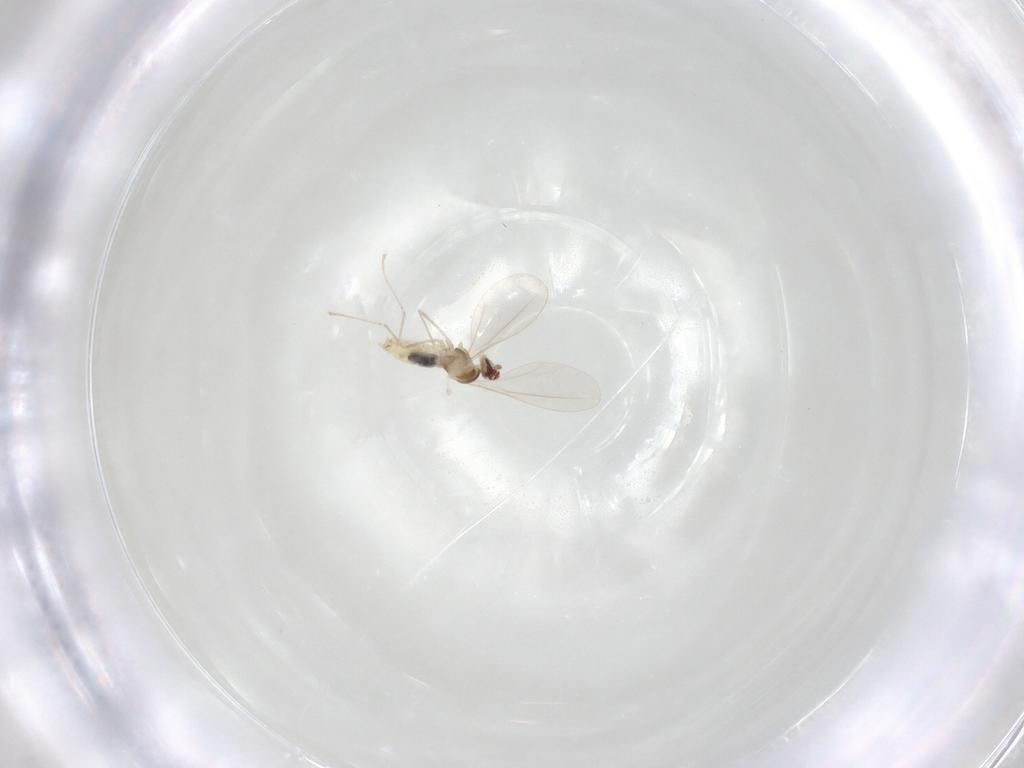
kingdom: Animalia
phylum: Arthropoda
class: Insecta
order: Diptera
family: Cecidomyiidae
